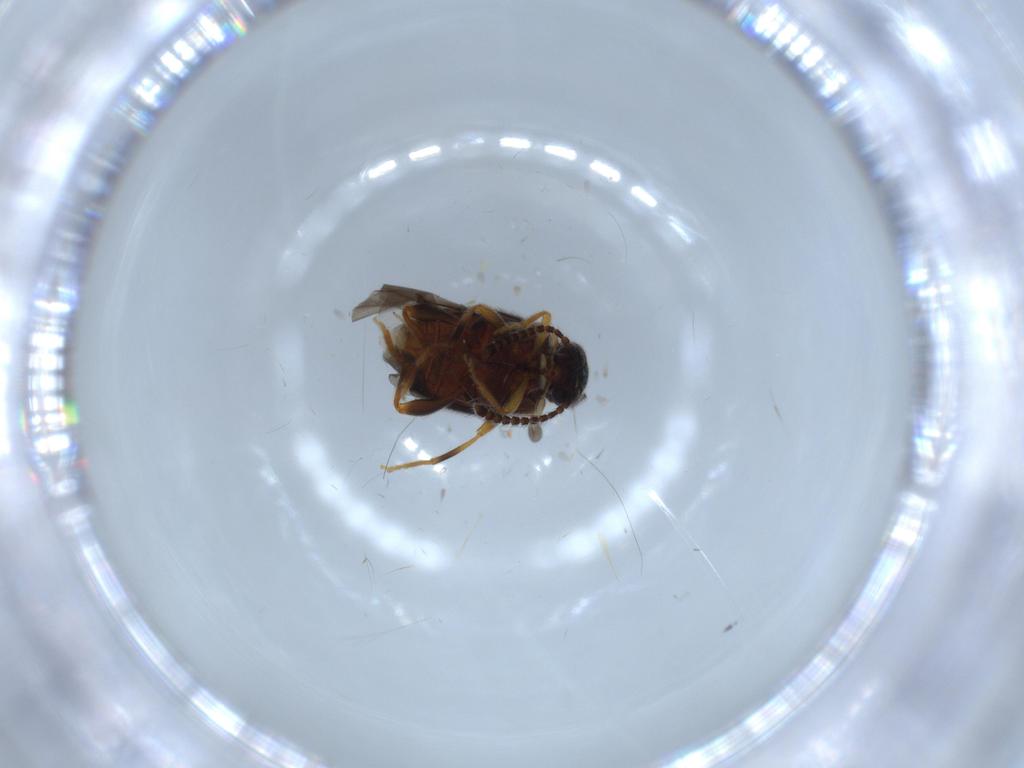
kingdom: Animalia
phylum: Arthropoda
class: Insecta
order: Coleoptera
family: Aderidae
